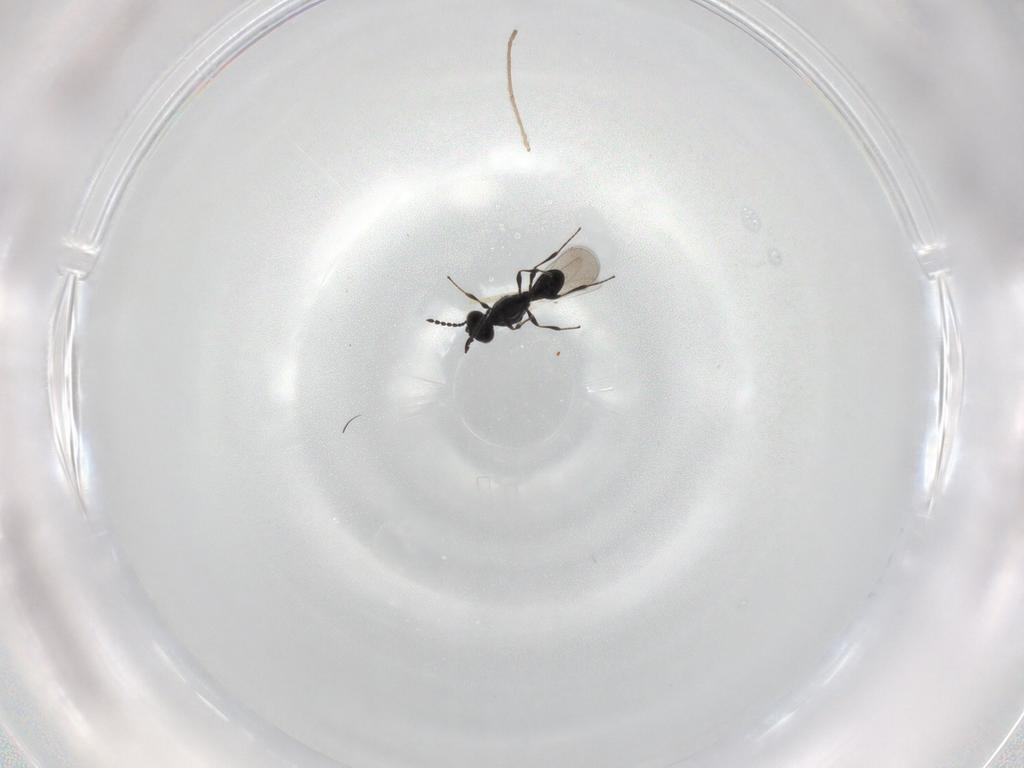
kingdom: Animalia
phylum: Arthropoda
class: Insecta
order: Hymenoptera
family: Platygastridae
